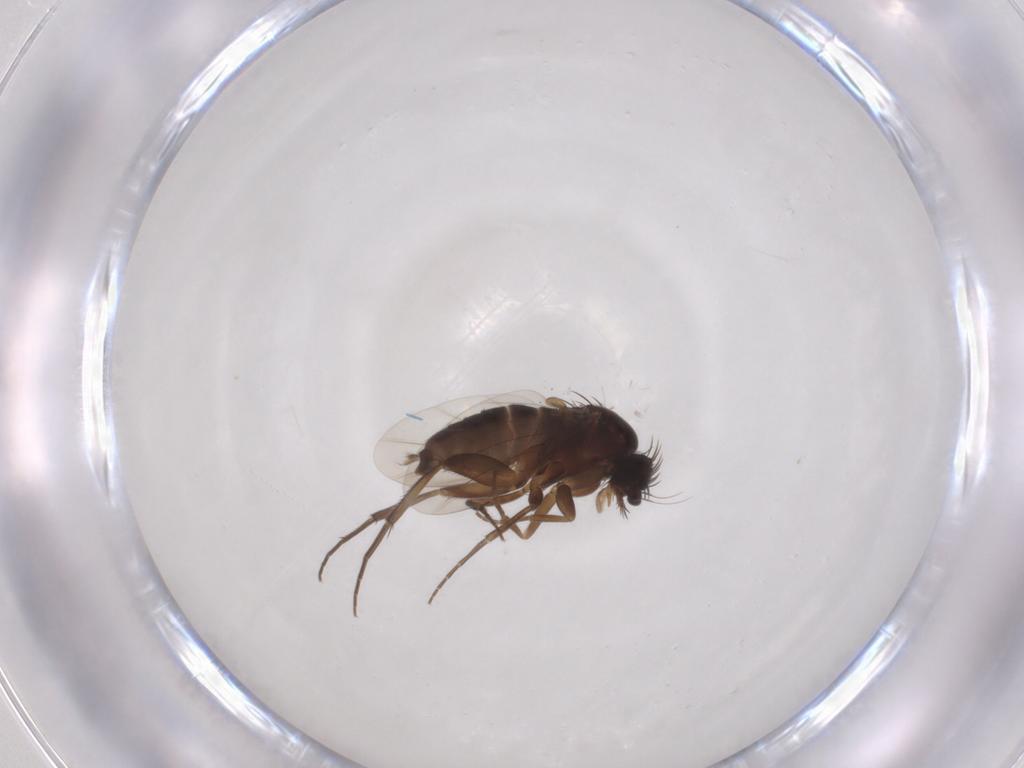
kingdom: Animalia
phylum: Arthropoda
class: Insecta
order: Diptera
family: Phoridae
